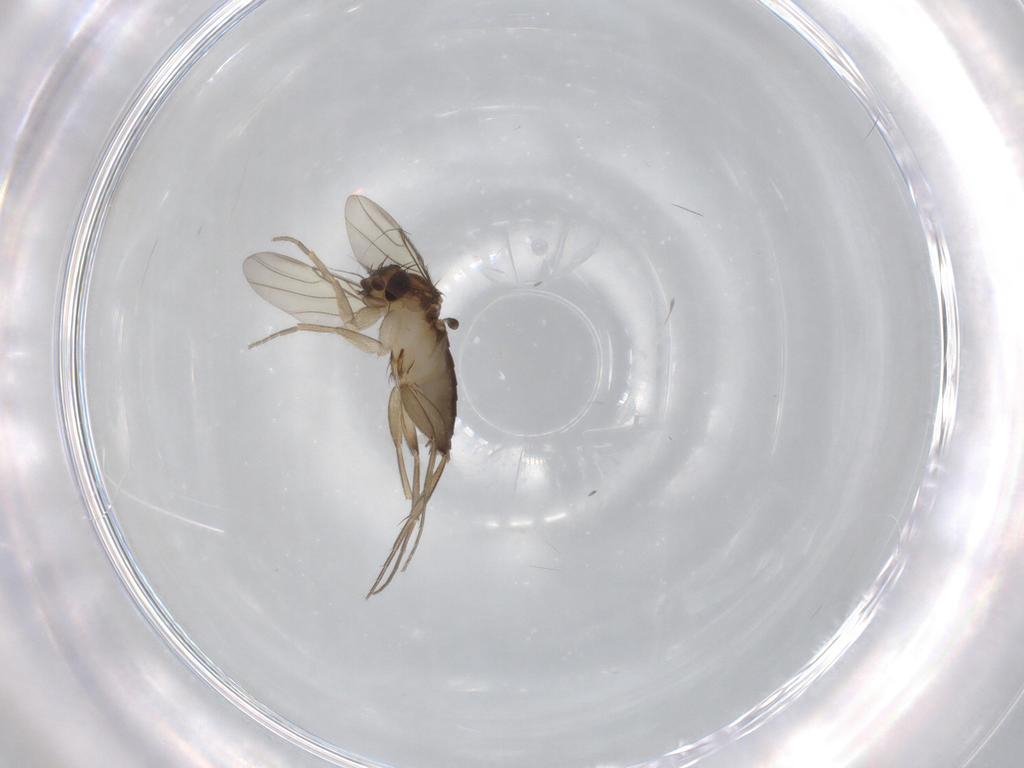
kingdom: Animalia
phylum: Arthropoda
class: Insecta
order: Diptera
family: Phoridae
